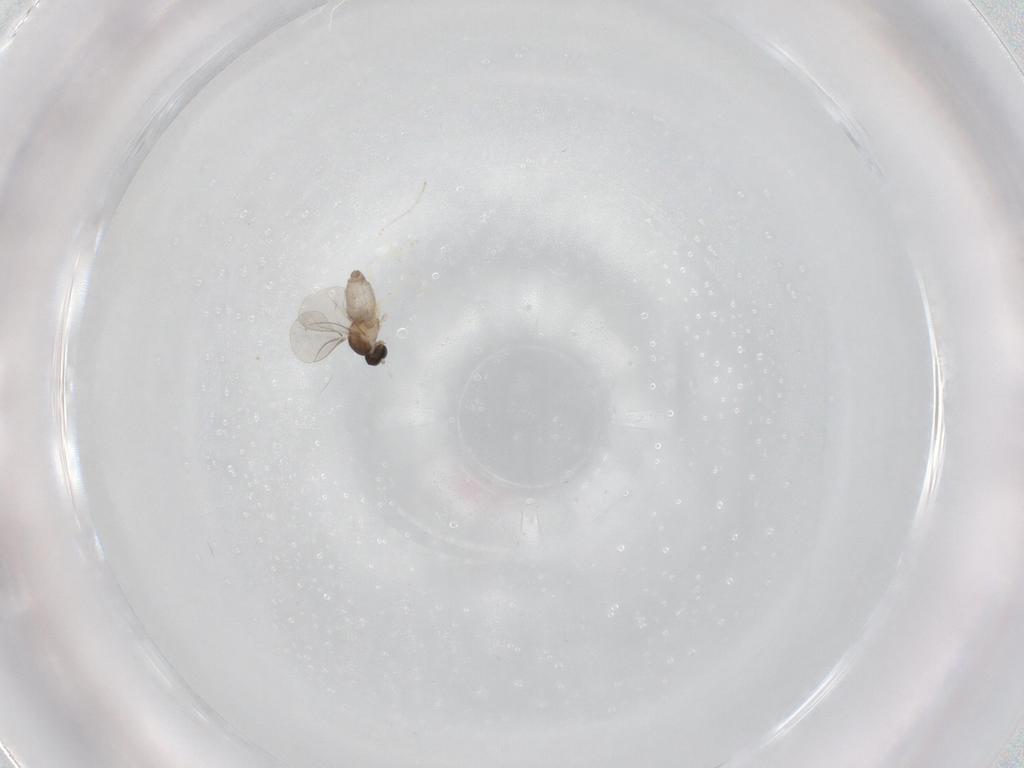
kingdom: Animalia
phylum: Arthropoda
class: Insecta
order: Diptera
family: Cecidomyiidae
